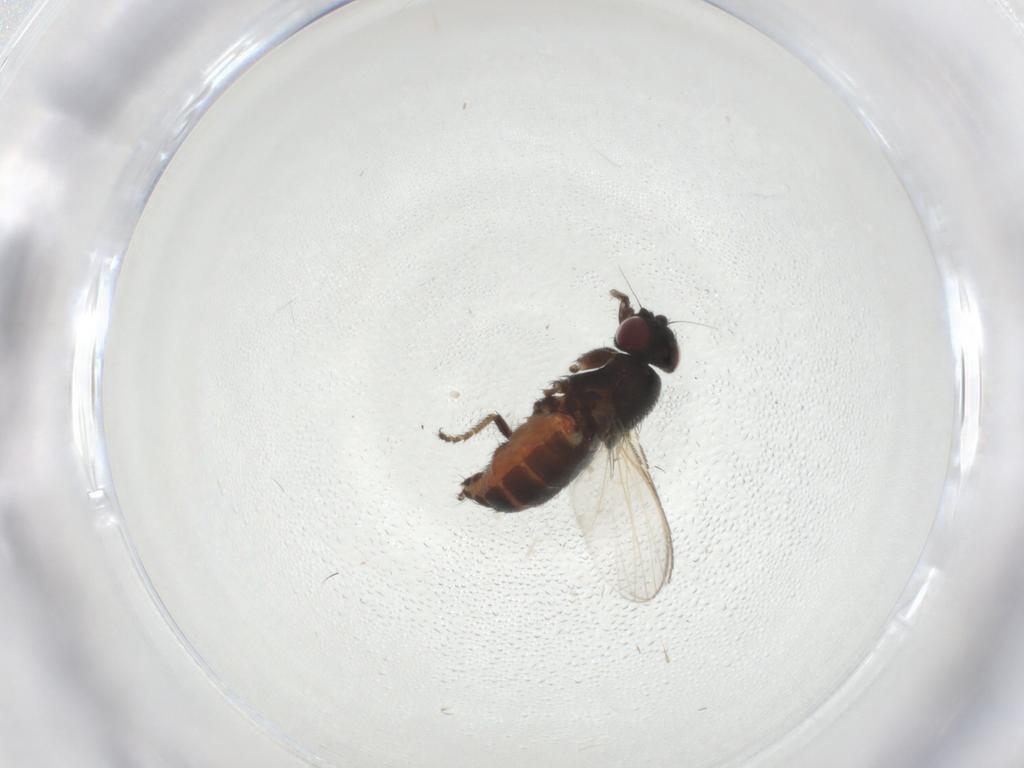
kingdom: Animalia
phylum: Arthropoda
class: Insecta
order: Diptera
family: Milichiidae
